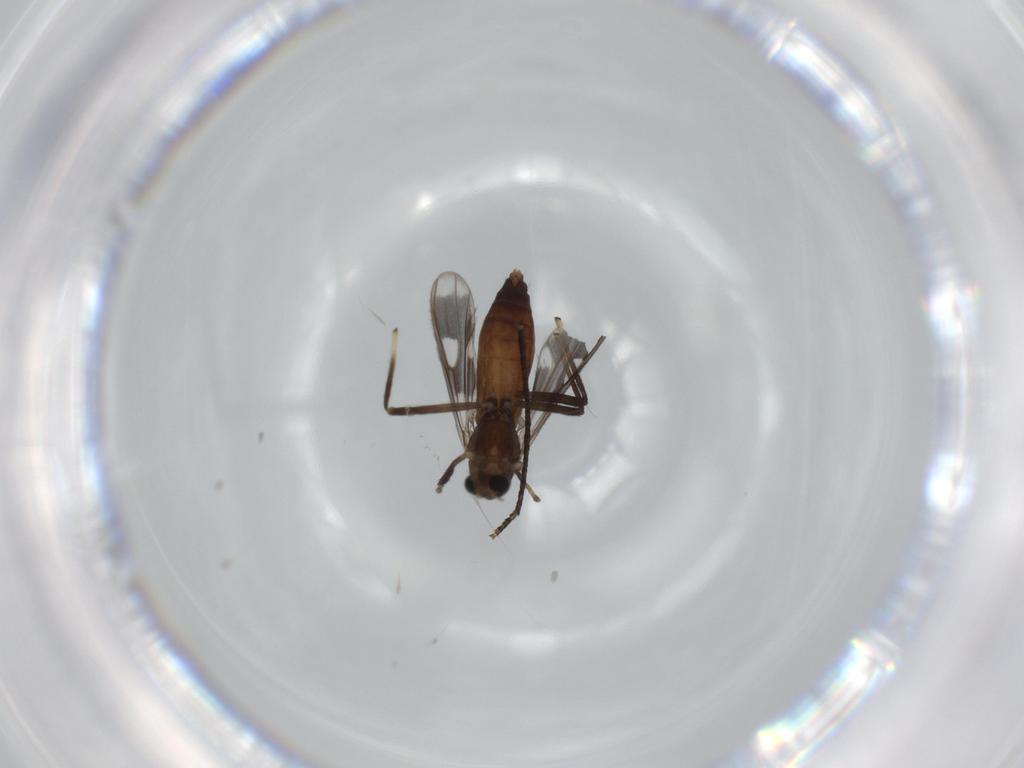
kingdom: Animalia
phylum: Arthropoda
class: Insecta
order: Diptera
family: Chironomidae
